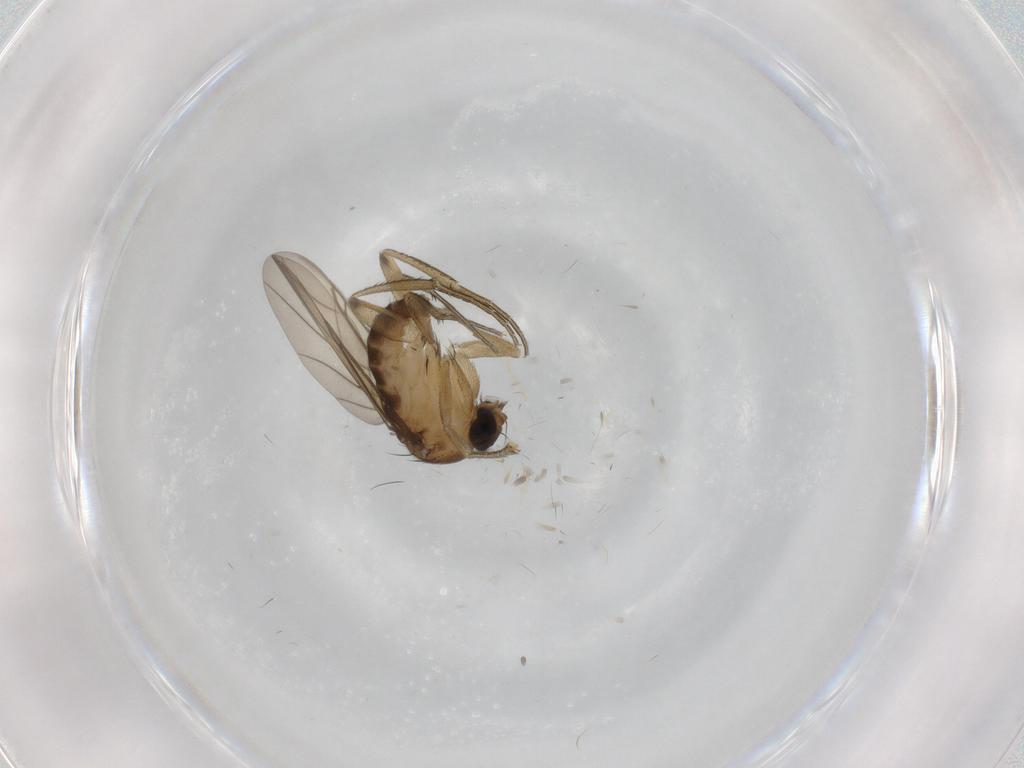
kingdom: Animalia
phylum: Arthropoda
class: Insecta
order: Diptera
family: Phoridae
